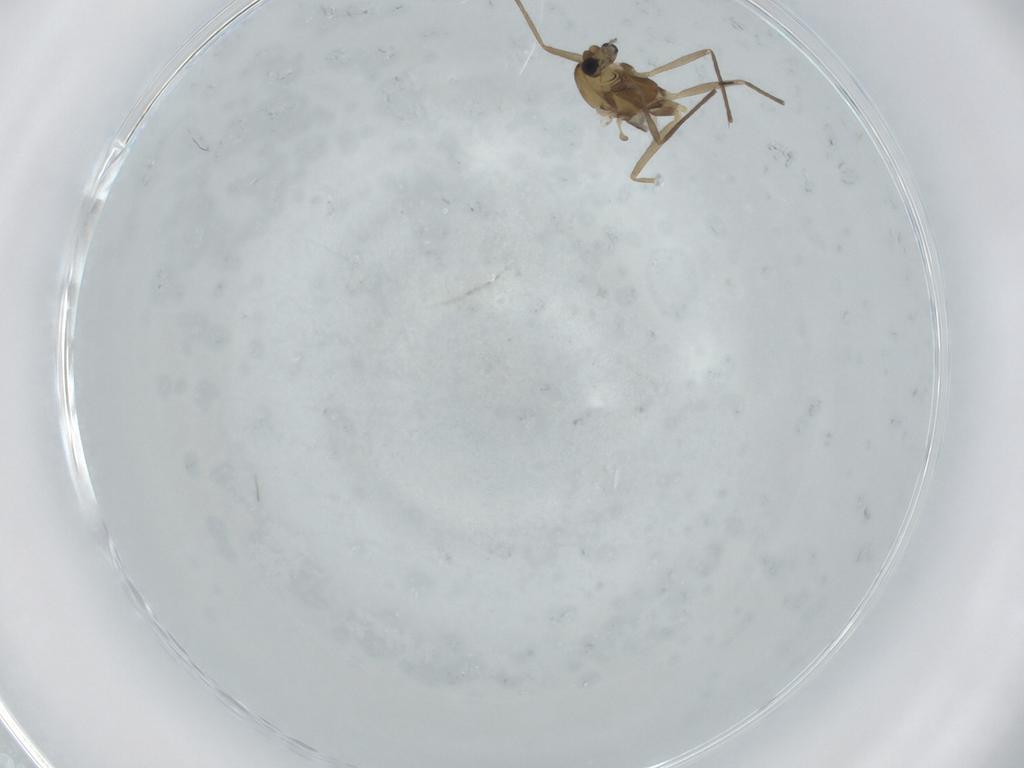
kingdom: Animalia
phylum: Arthropoda
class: Insecta
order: Diptera
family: Chironomidae
